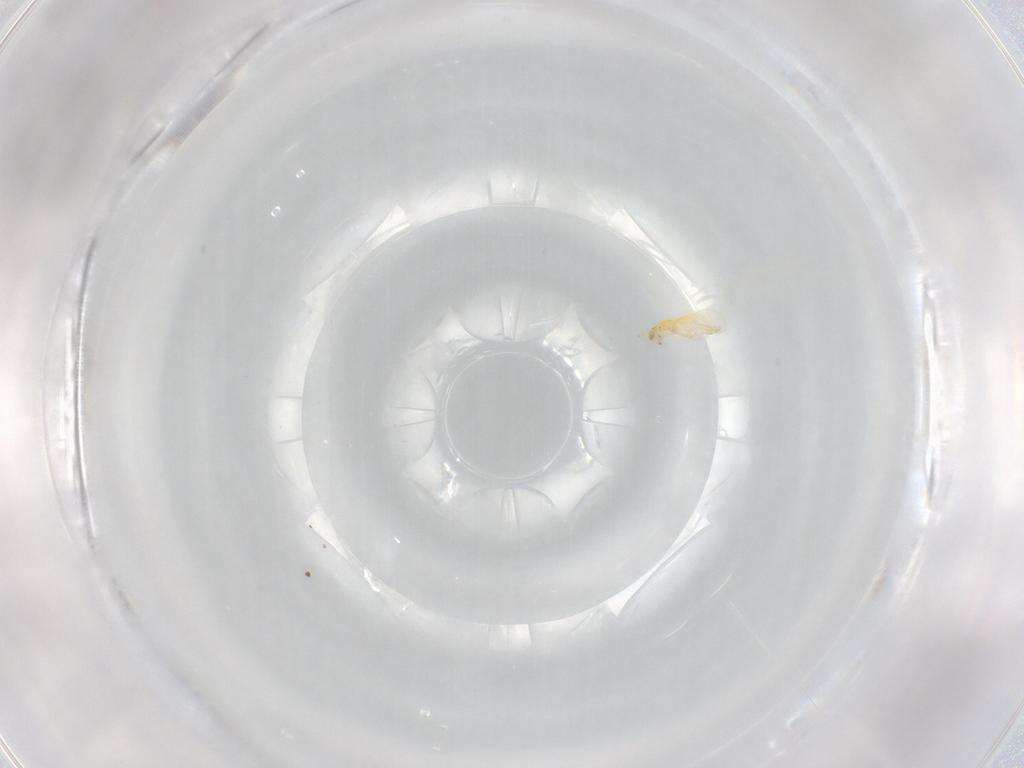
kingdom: Animalia
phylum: Arthropoda
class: Insecta
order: Hymenoptera
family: Aphelinidae
